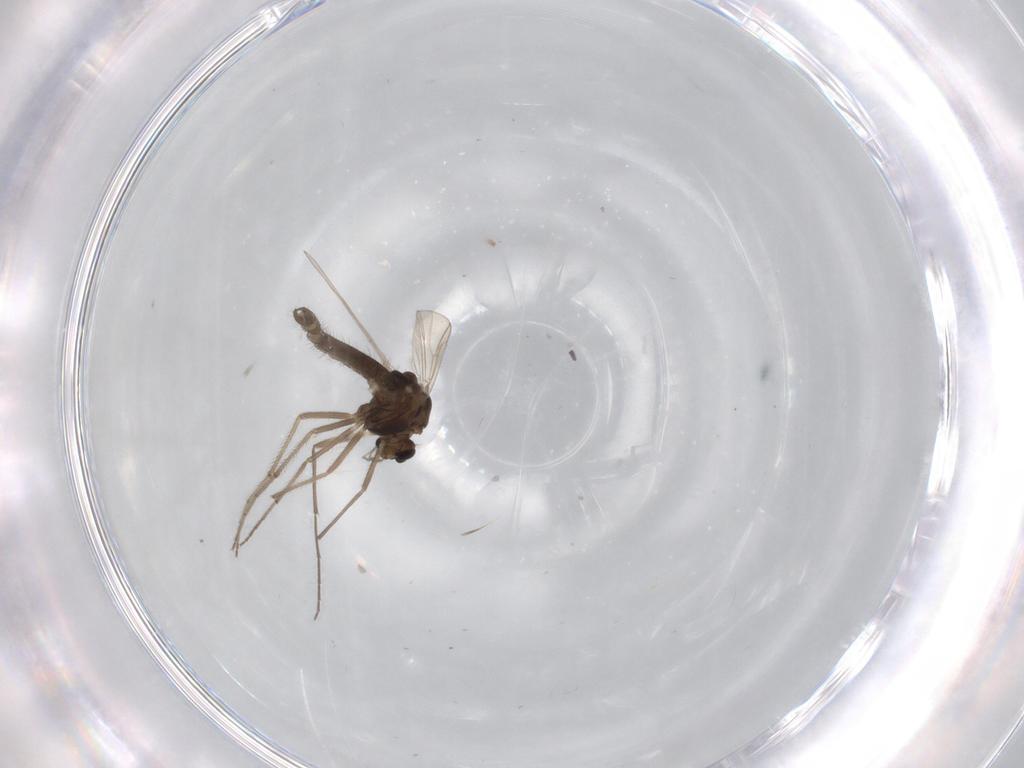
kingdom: Animalia
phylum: Arthropoda
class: Insecta
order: Diptera
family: Chironomidae
